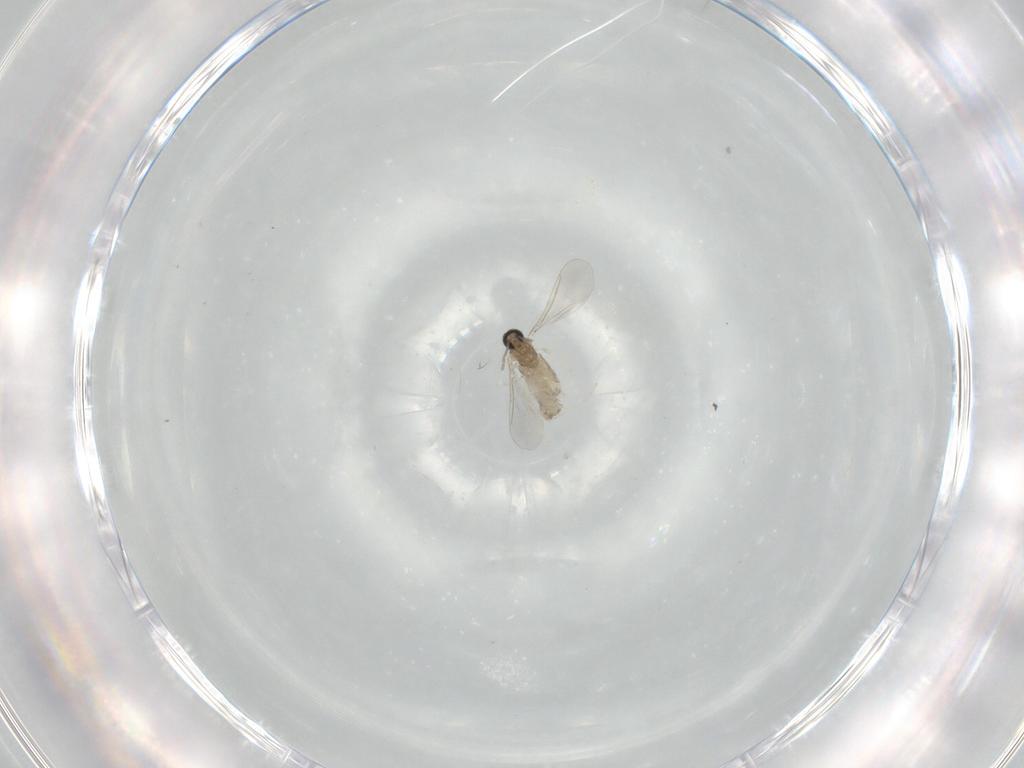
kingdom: Animalia
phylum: Arthropoda
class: Insecta
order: Diptera
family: Cecidomyiidae
